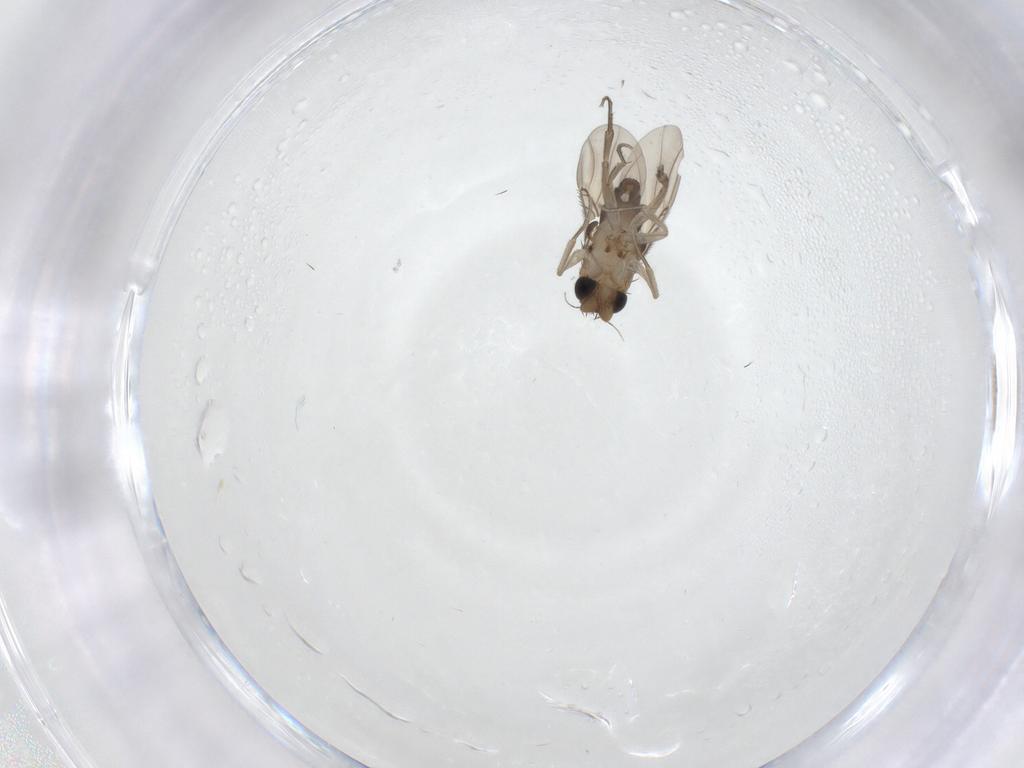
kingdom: Animalia
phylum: Arthropoda
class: Insecta
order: Diptera
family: Phoridae
